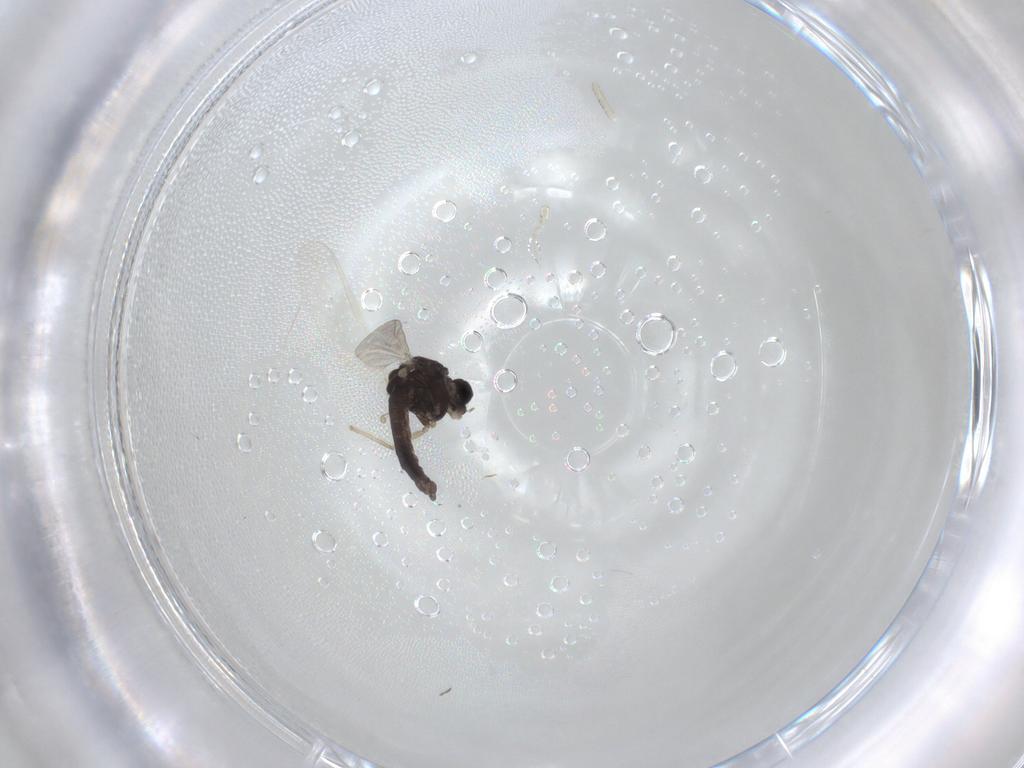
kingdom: Animalia
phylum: Arthropoda
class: Insecta
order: Diptera
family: Chironomidae
